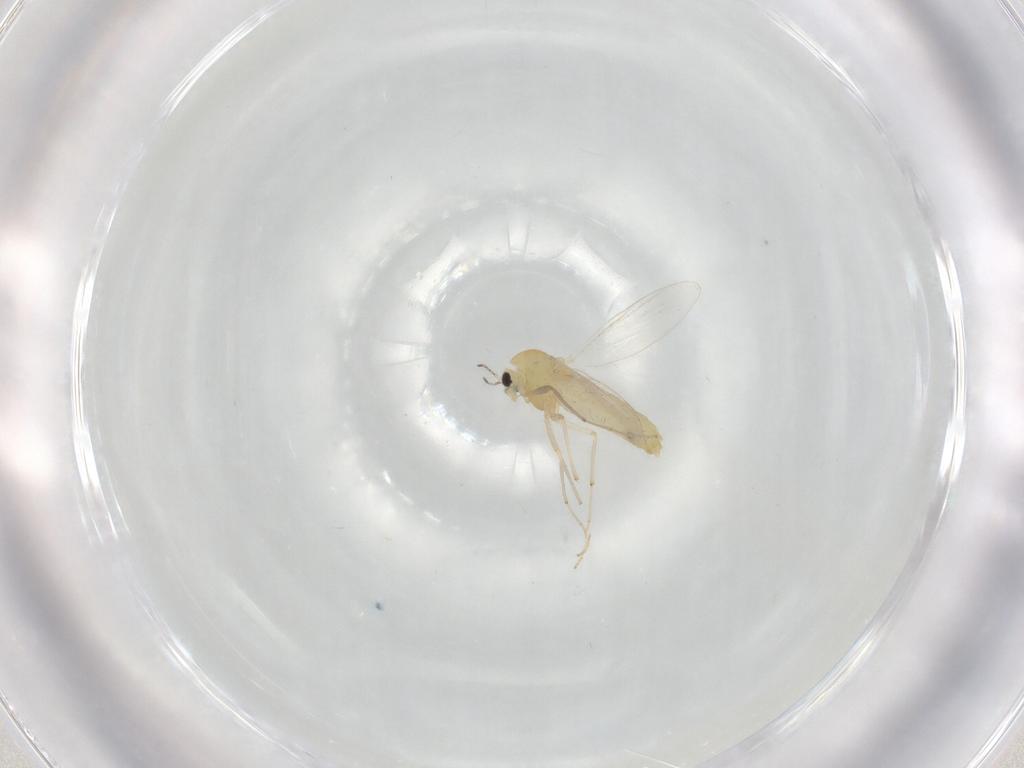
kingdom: Animalia
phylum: Arthropoda
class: Insecta
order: Diptera
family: Chironomidae
